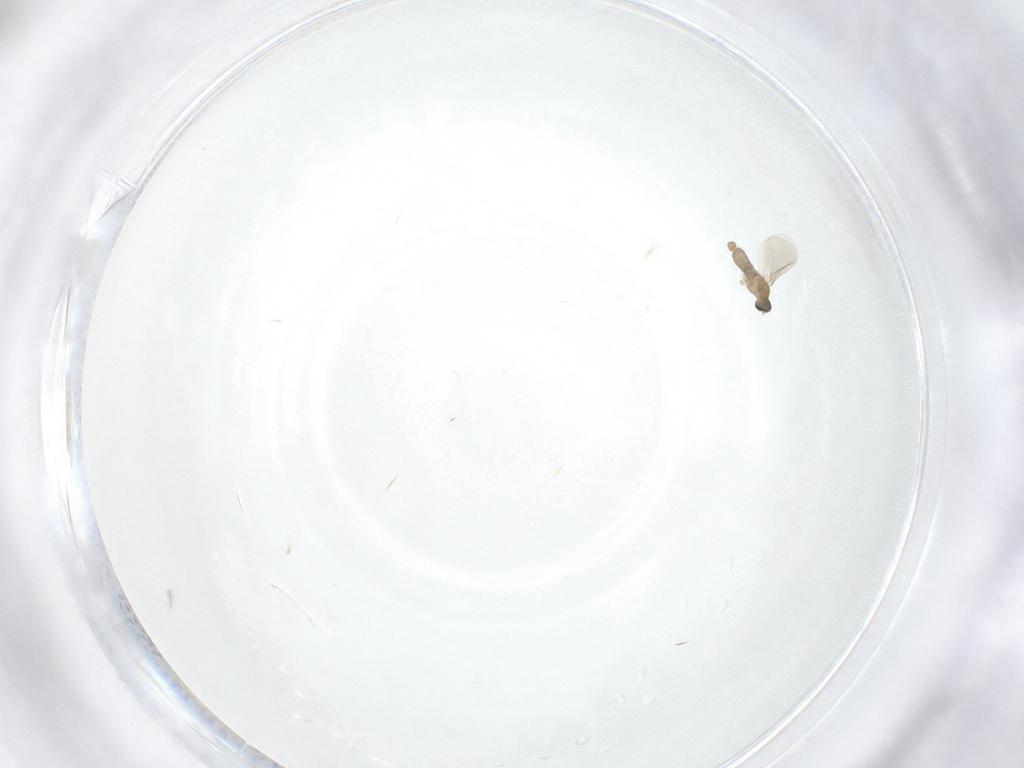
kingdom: Animalia
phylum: Arthropoda
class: Insecta
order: Diptera
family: Cecidomyiidae
